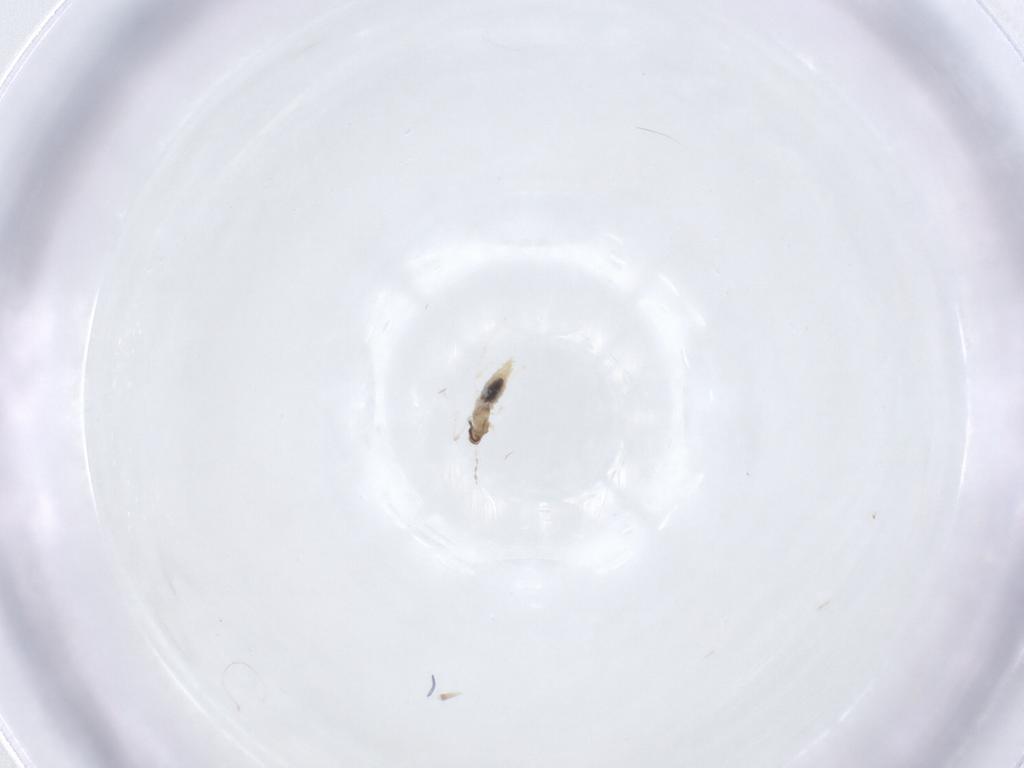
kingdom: Animalia
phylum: Arthropoda
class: Insecta
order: Diptera
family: Cecidomyiidae
